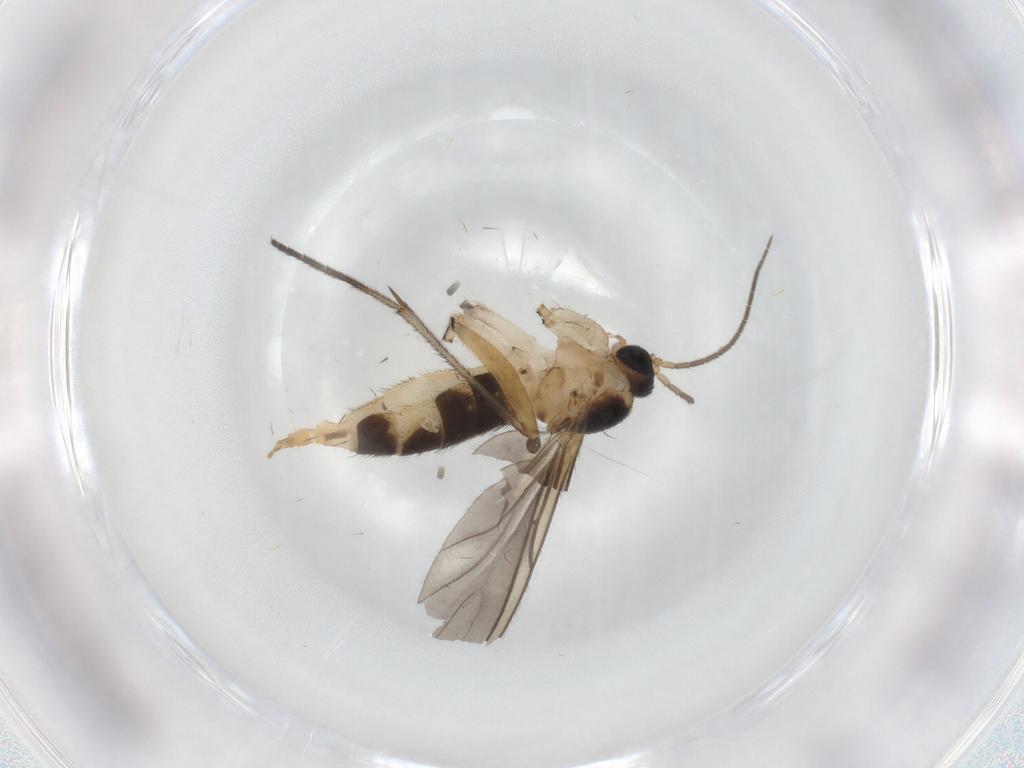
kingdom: Animalia
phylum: Arthropoda
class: Insecta
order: Diptera
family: Sciaridae
